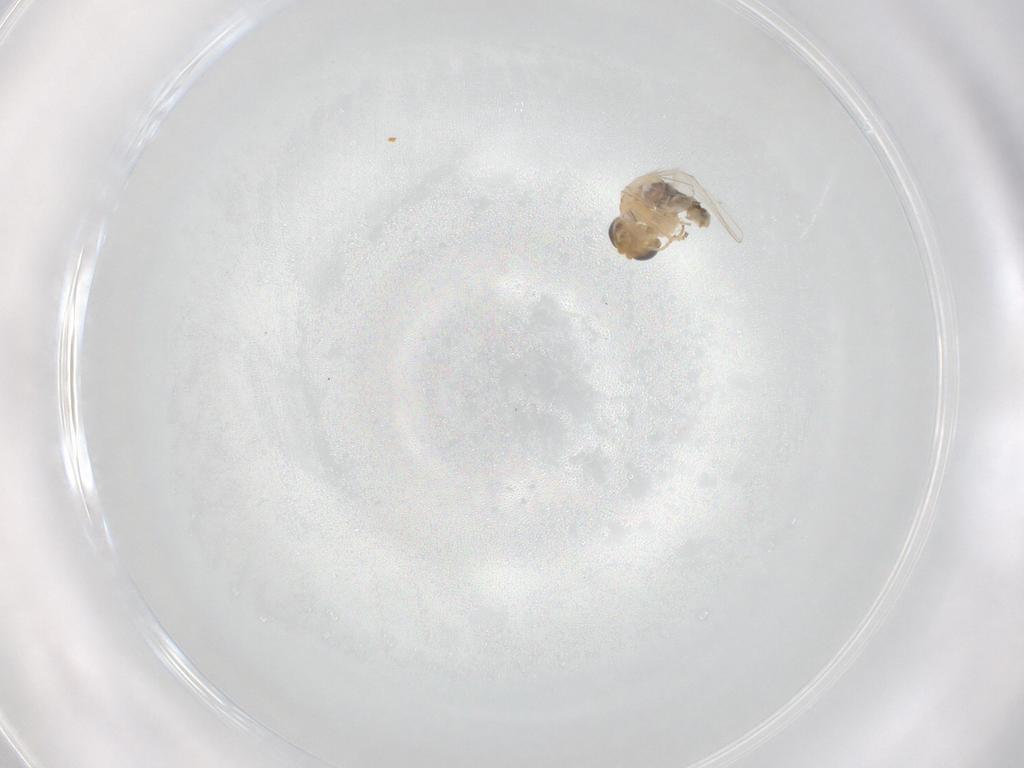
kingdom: Animalia
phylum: Arthropoda
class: Insecta
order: Diptera
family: Chyromyidae
